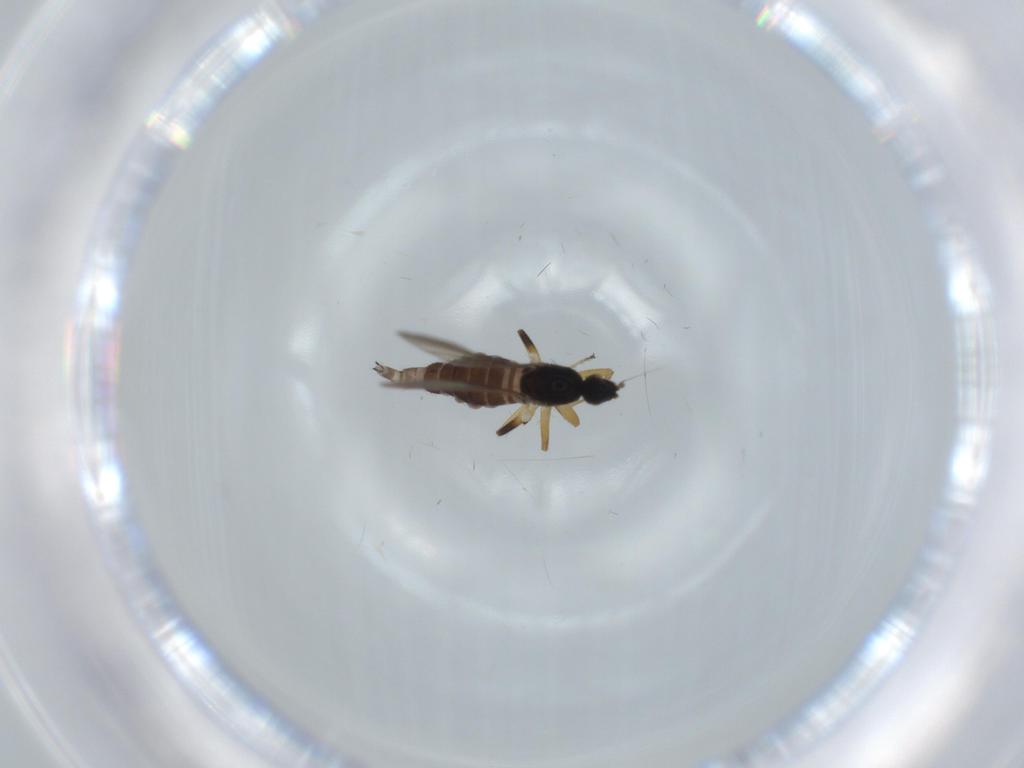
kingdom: Animalia
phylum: Arthropoda
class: Insecta
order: Diptera
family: Hybotidae
